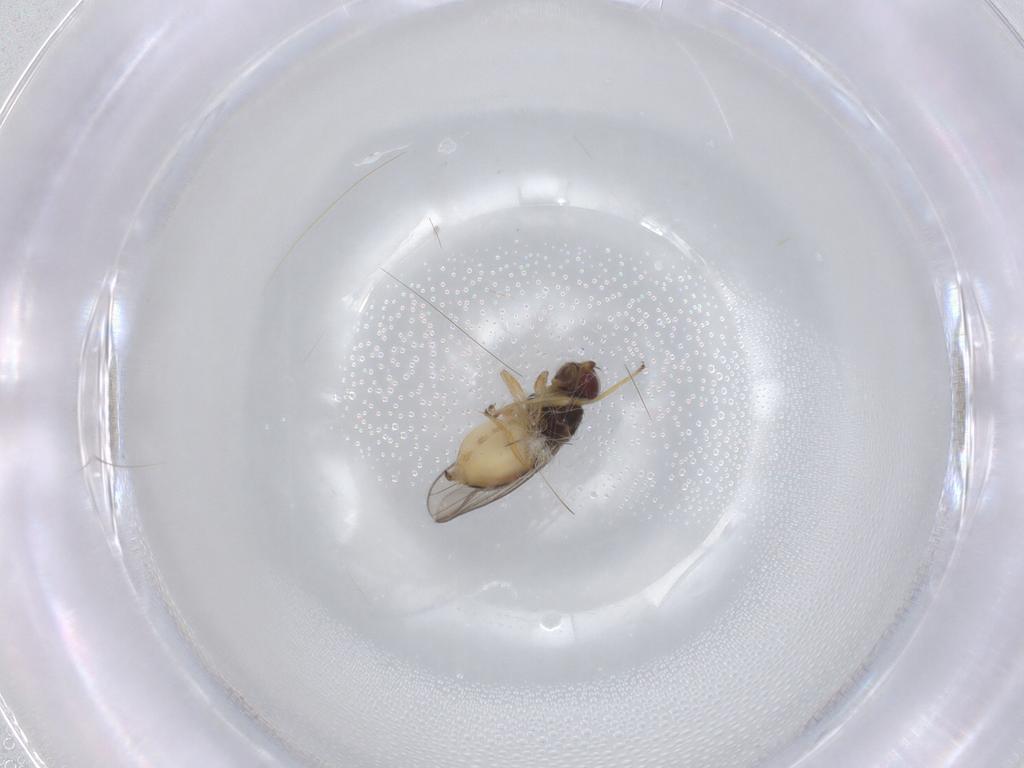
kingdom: Animalia
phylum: Arthropoda
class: Insecta
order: Diptera
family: Chloropidae
